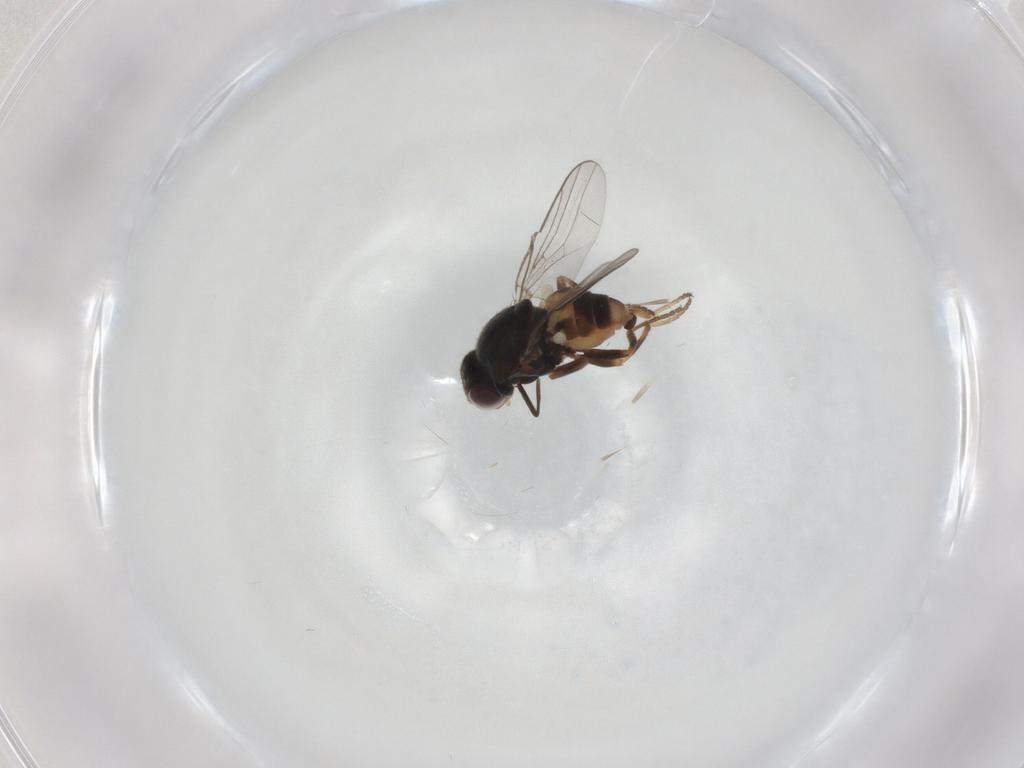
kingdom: Animalia
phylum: Arthropoda
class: Insecta
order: Diptera
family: Chloropidae
